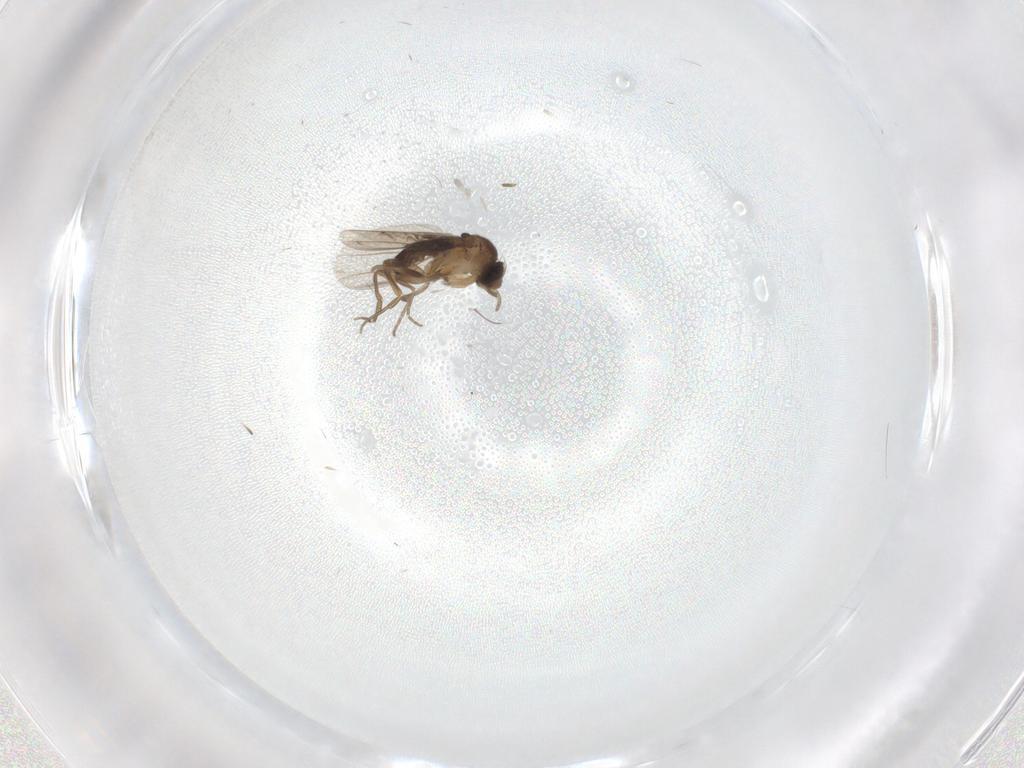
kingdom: Animalia
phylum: Arthropoda
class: Insecta
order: Diptera
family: Phoridae
